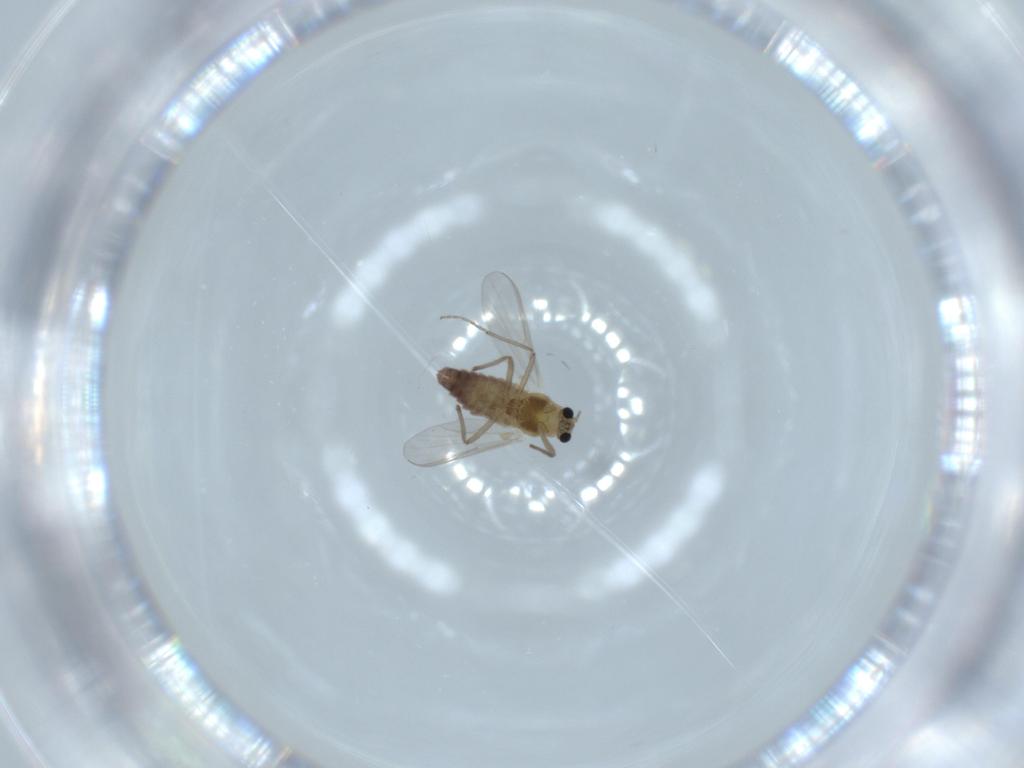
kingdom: Animalia
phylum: Arthropoda
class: Insecta
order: Diptera
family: Chironomidae
